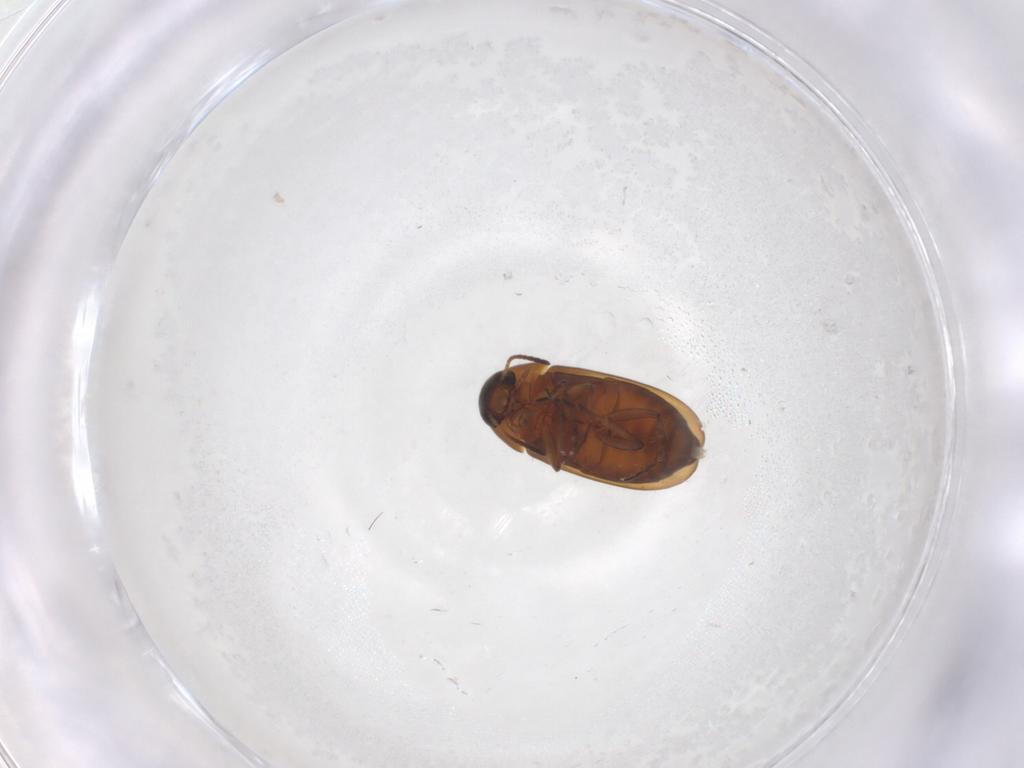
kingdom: Animalia
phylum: Arthropoda
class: Insecta
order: Coleoptera
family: Scraptiidae
